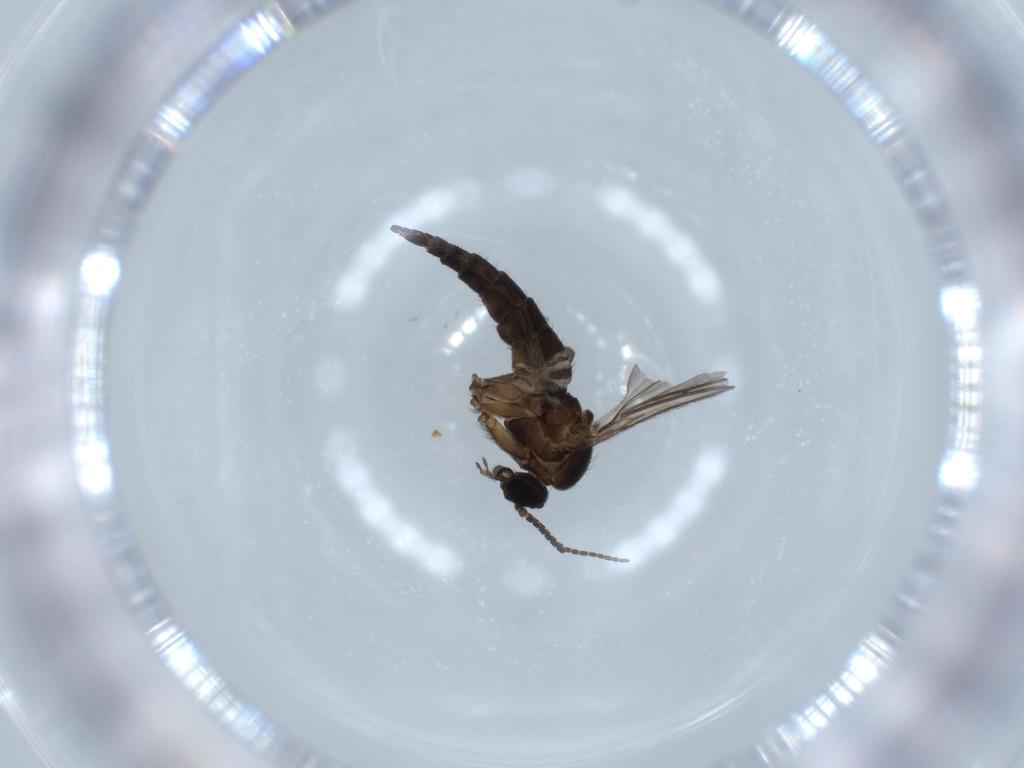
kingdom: Animalia
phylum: Arthropoda
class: Insecta
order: Diptera
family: Sciaridae
